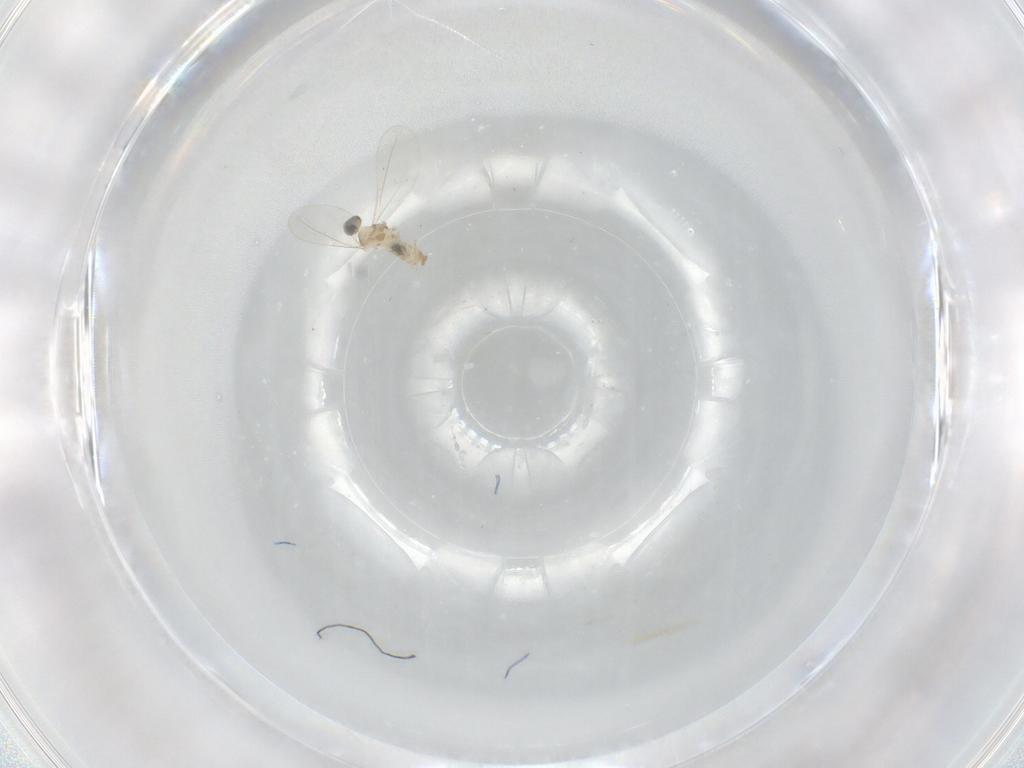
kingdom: Animalia
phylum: Arthropoda
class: Insecta
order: Diptera
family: Cecidomyiidae
